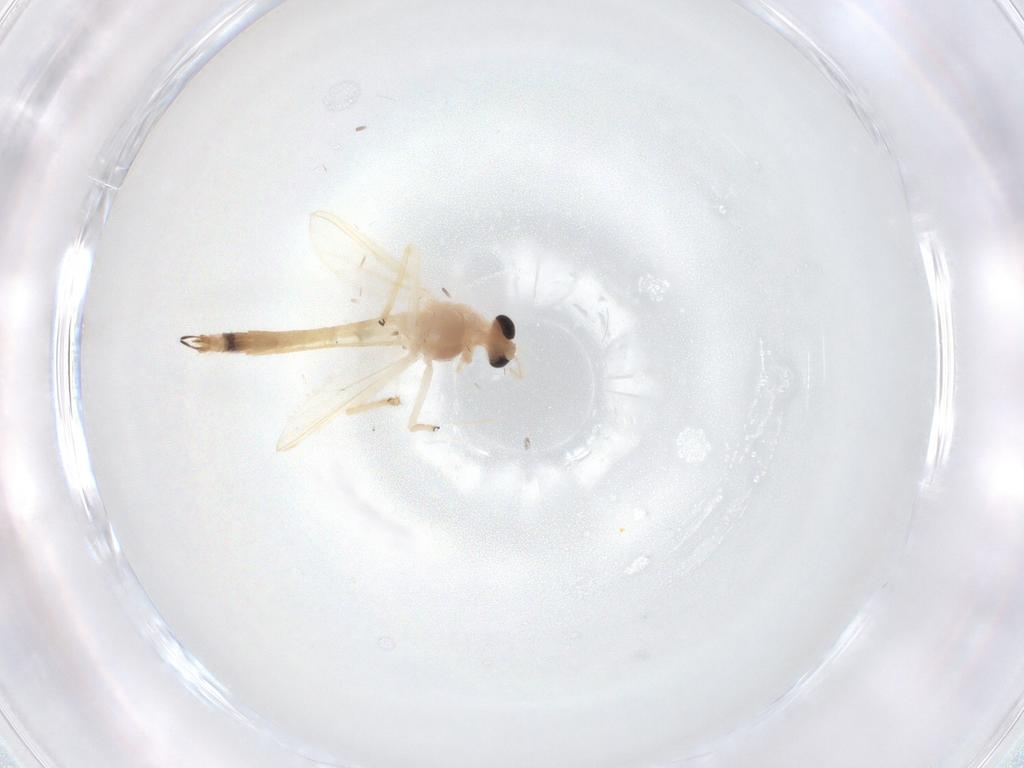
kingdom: Animalia
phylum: Arthropoda
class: Insecta
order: Diptera
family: Chironomidae
